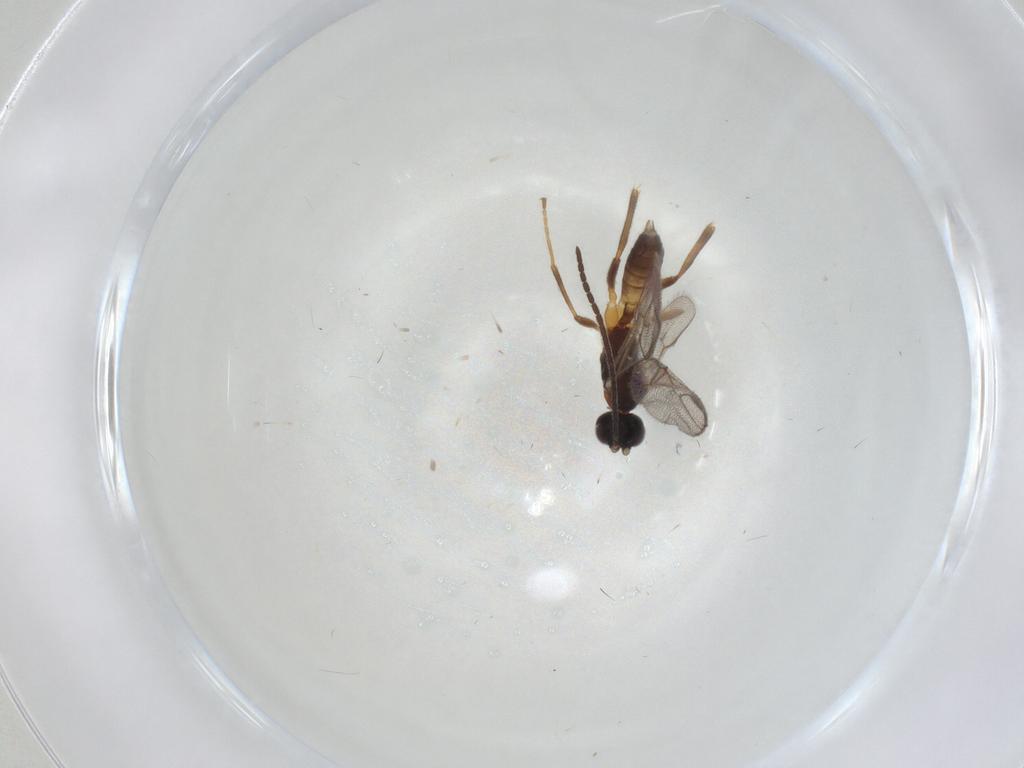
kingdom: Animalia
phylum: Arthropoda
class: Insecta
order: Hymenoptera
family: Ichneumonidae
